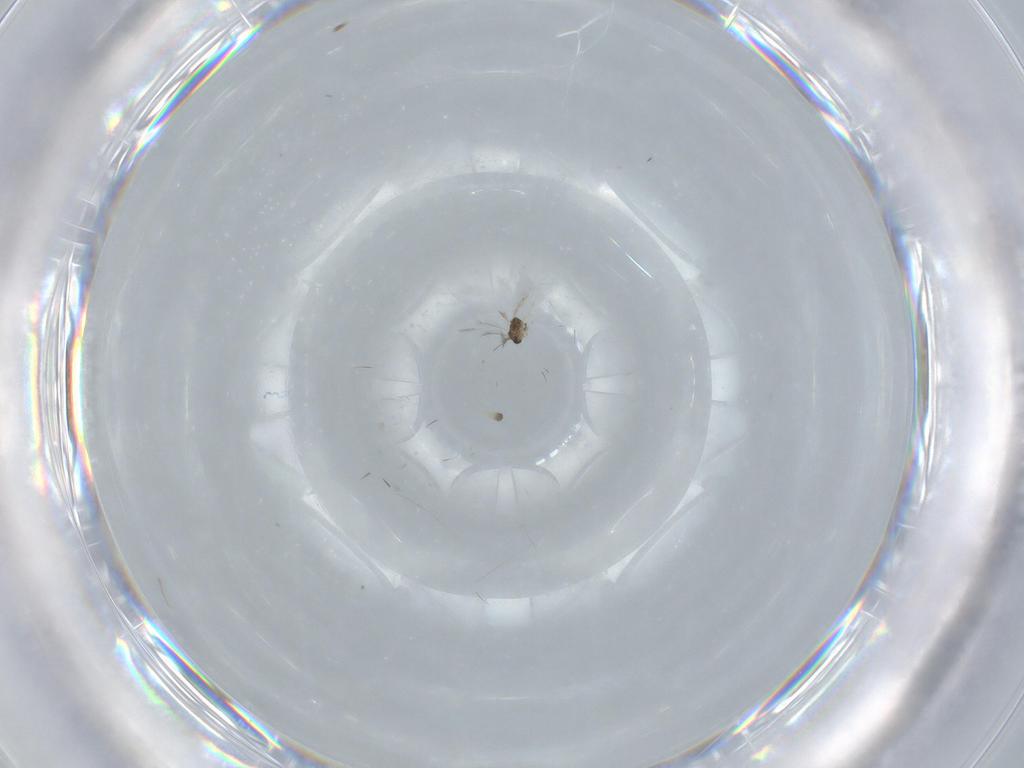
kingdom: Animalia
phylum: Arthropoda
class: Insecta
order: Hymenoptera
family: Mymaridae
